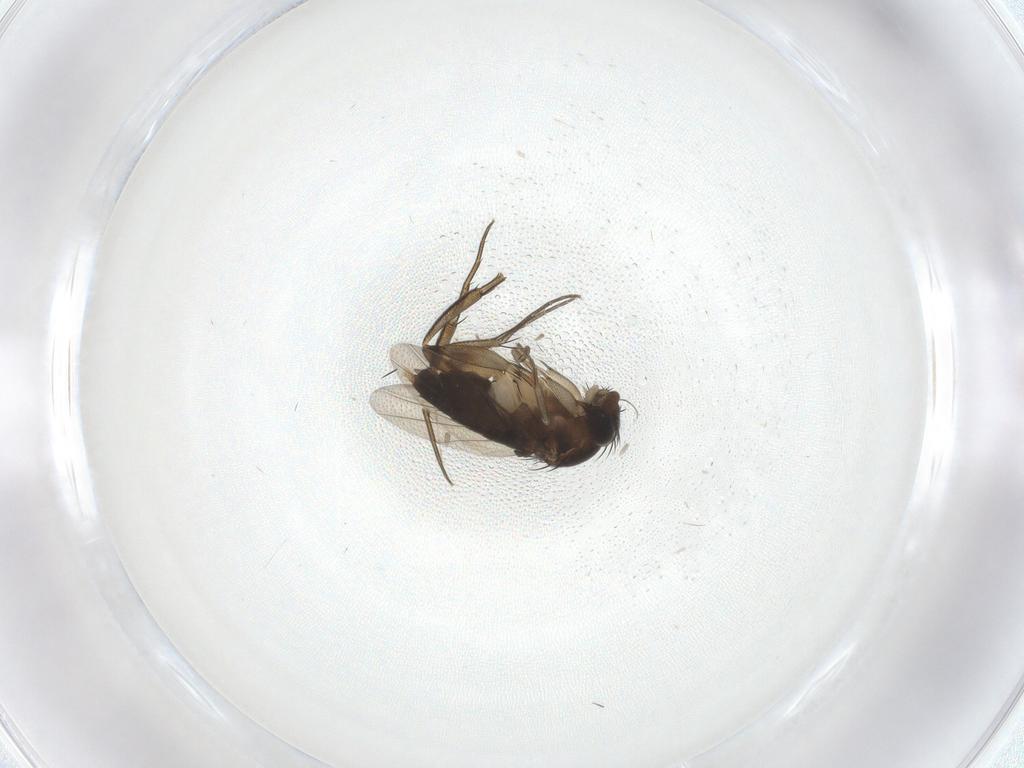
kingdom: Animalia
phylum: Arthropoda
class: Insecta
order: Diptera
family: Phoridae
